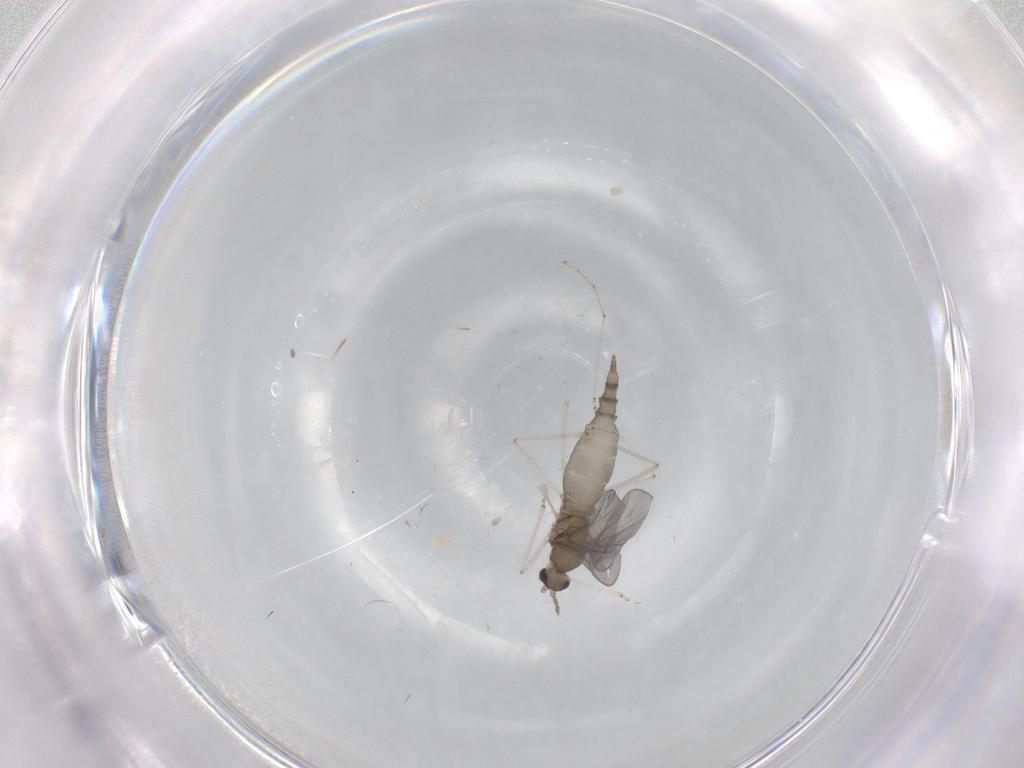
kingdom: Animalia
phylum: Arthropoda
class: Insecta
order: Diptera
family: Cecidomyiidae
